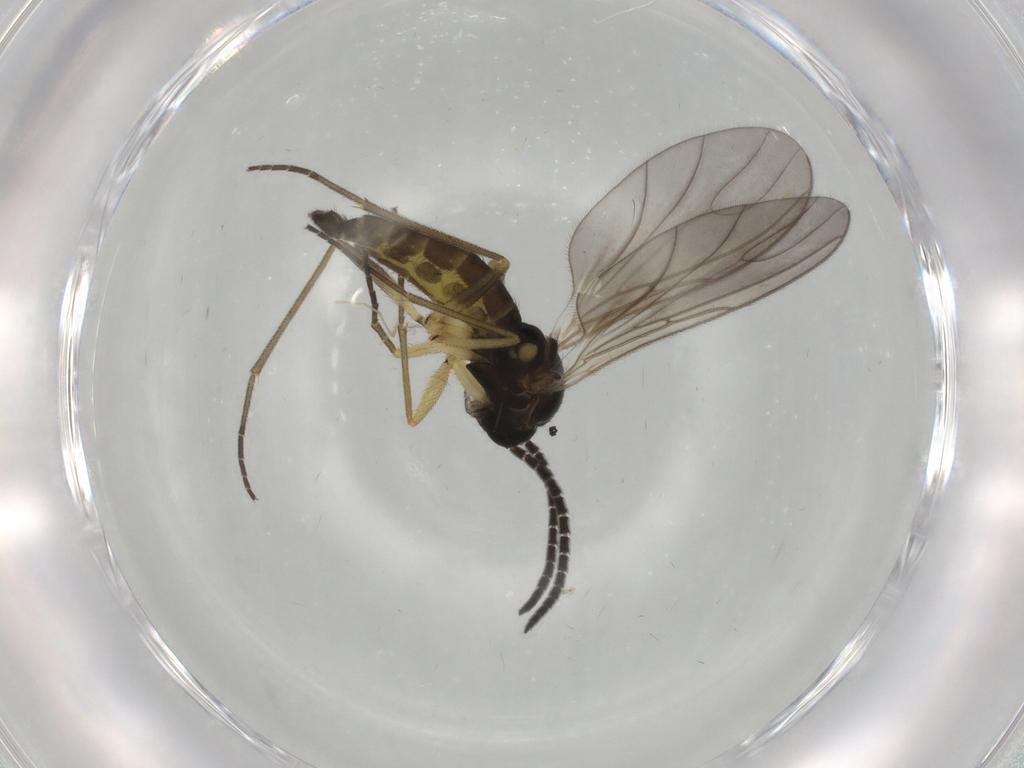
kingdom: Animalia
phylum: Arthropoda
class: Insecta
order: Diptera
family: Sciaridae
